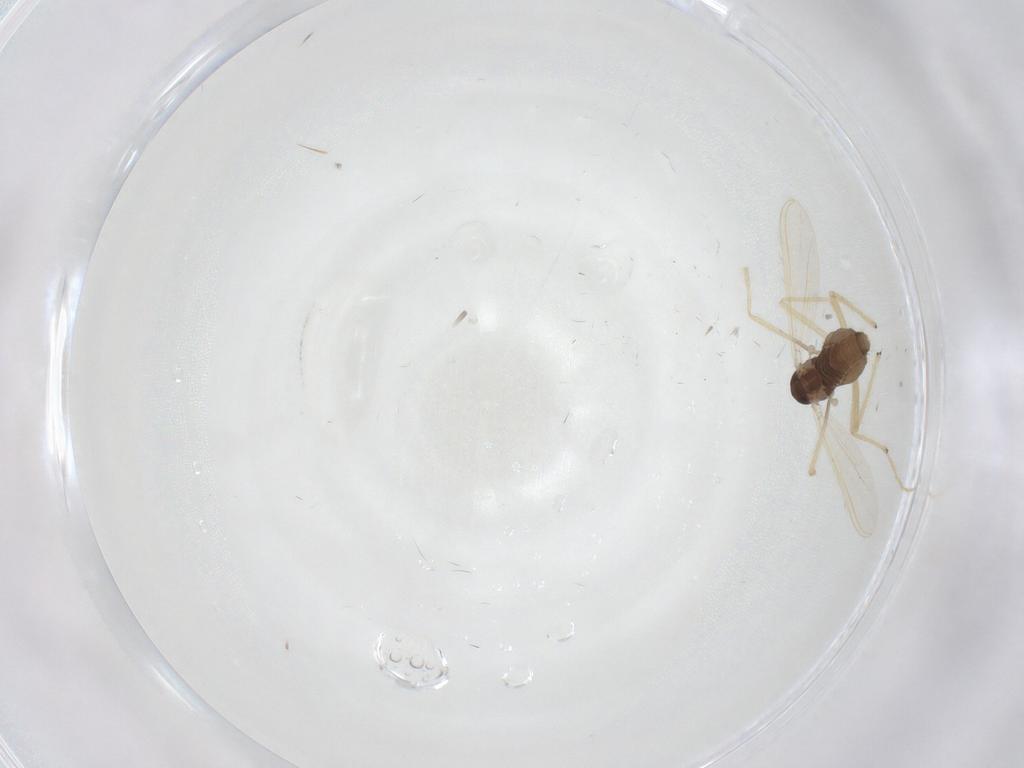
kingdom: Animalia
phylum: Arthropoda
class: Insecta
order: Diptera
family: Chironomidae
